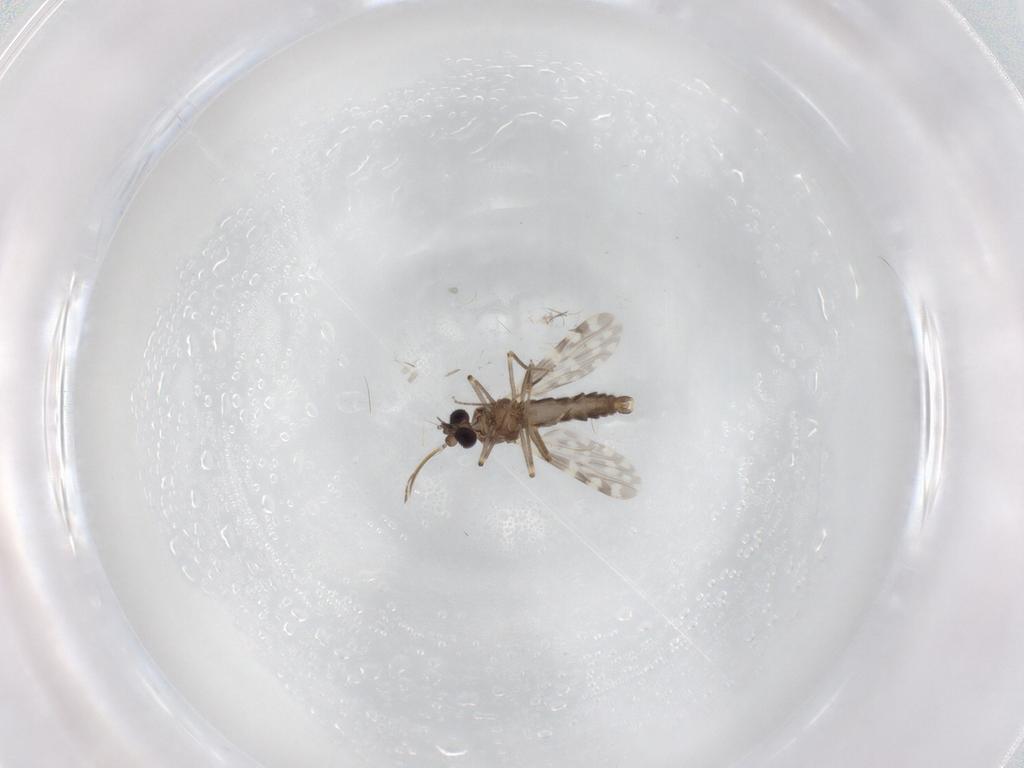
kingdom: Animalia
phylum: Arthropoda
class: Insecta
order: Diptera
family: Ceratopogonidae
